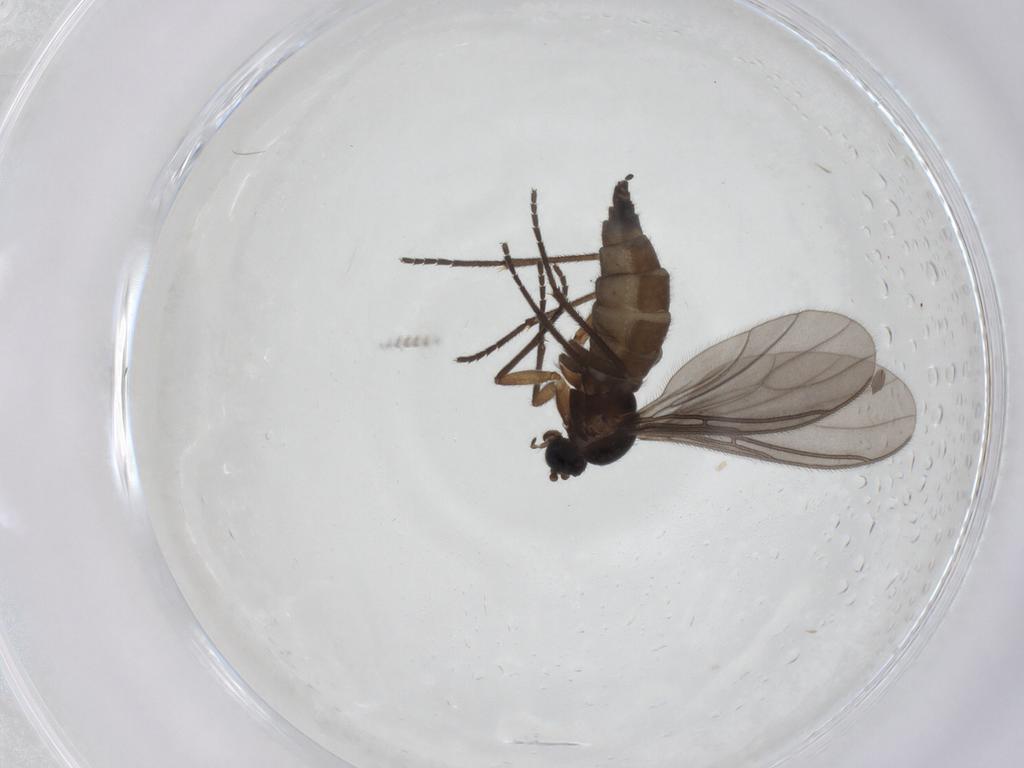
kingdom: Animalia
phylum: Arthropoda
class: Insecta
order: Diptera
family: Sciaridae
